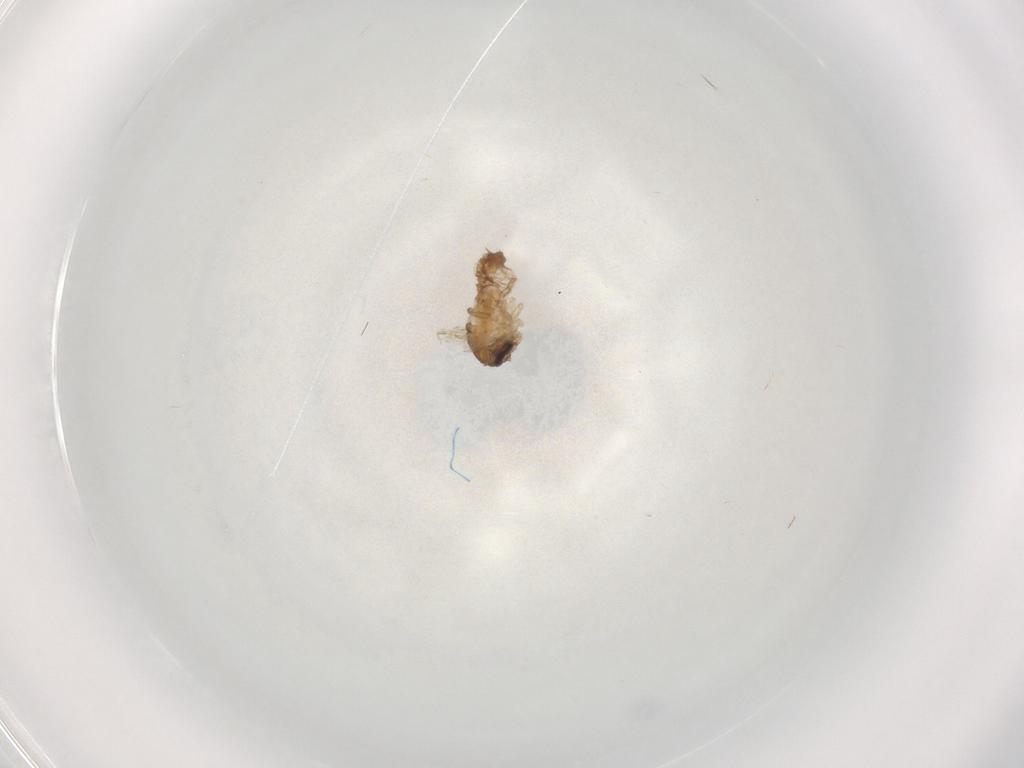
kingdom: Animalia
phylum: Arthropoda
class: Insecta
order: Diptera
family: Psychodidae
